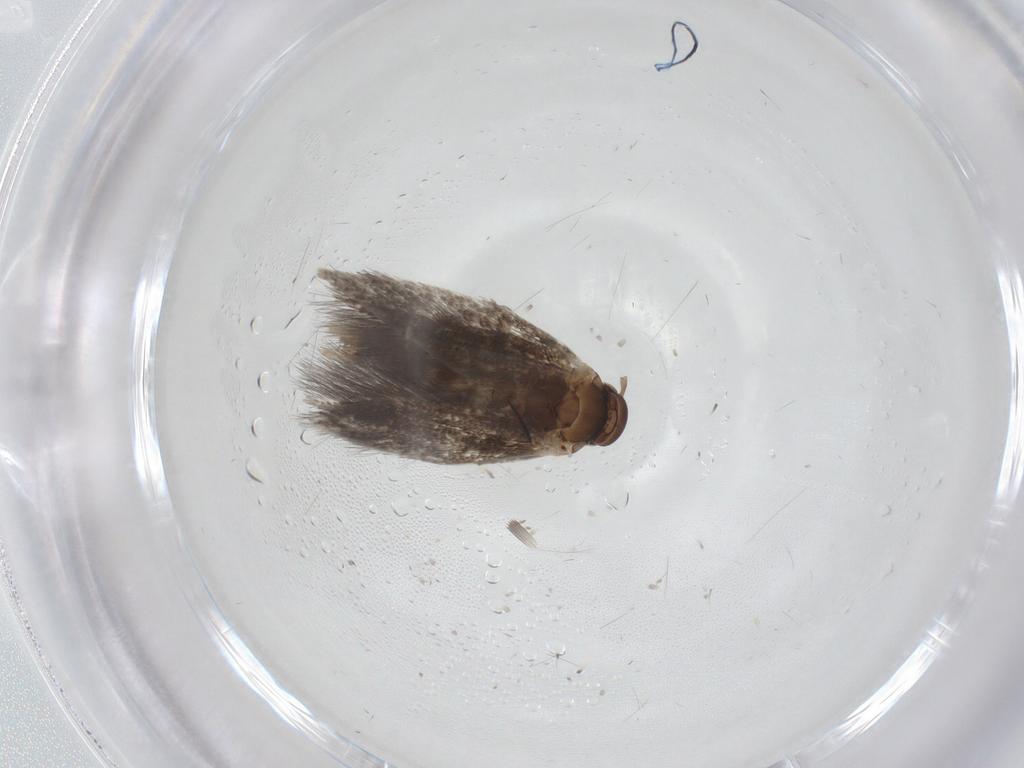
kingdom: Animalia
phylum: Arthropoda
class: Insecta
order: Lepidoptera
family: Elachistidae
